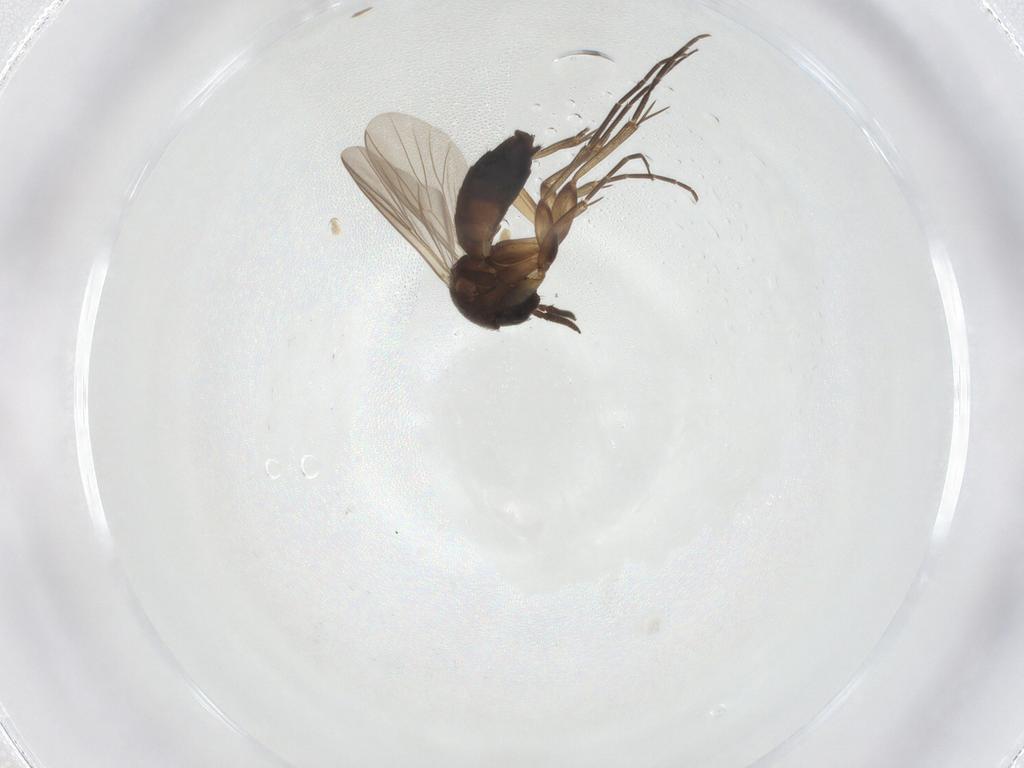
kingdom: Animalia
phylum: Arthropoda
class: Insecta
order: Diptera
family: Mycetophilidae
